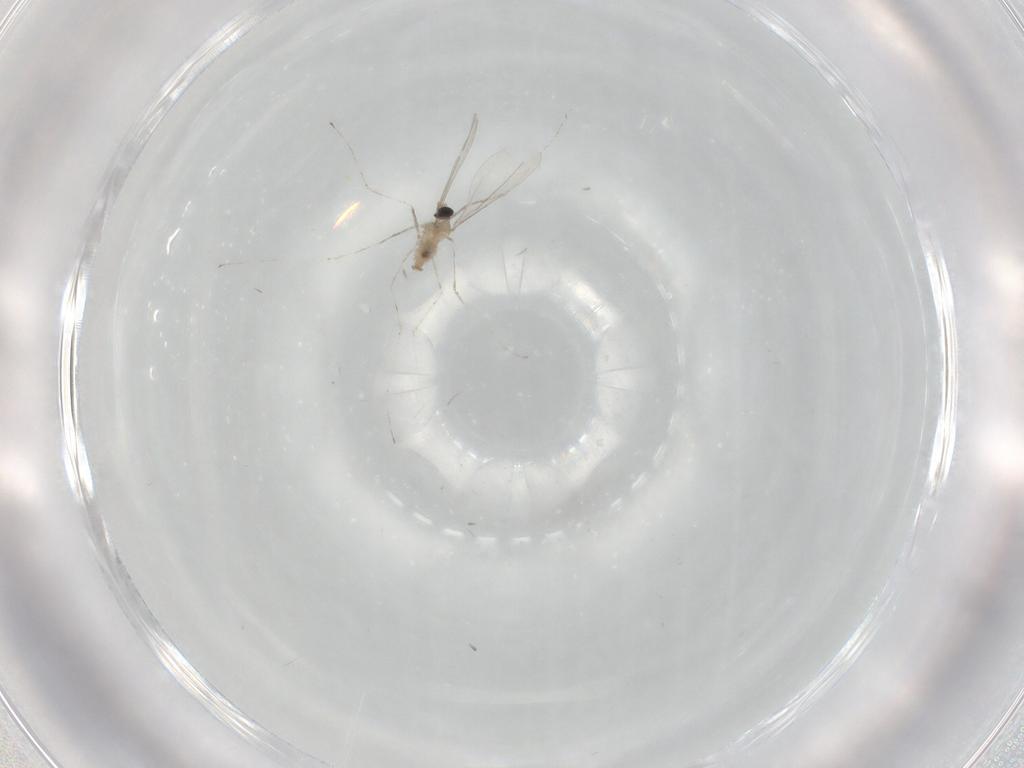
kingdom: Animalia
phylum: Arthropoda
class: Insecta
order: Diptera
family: Cecidomyiidae
